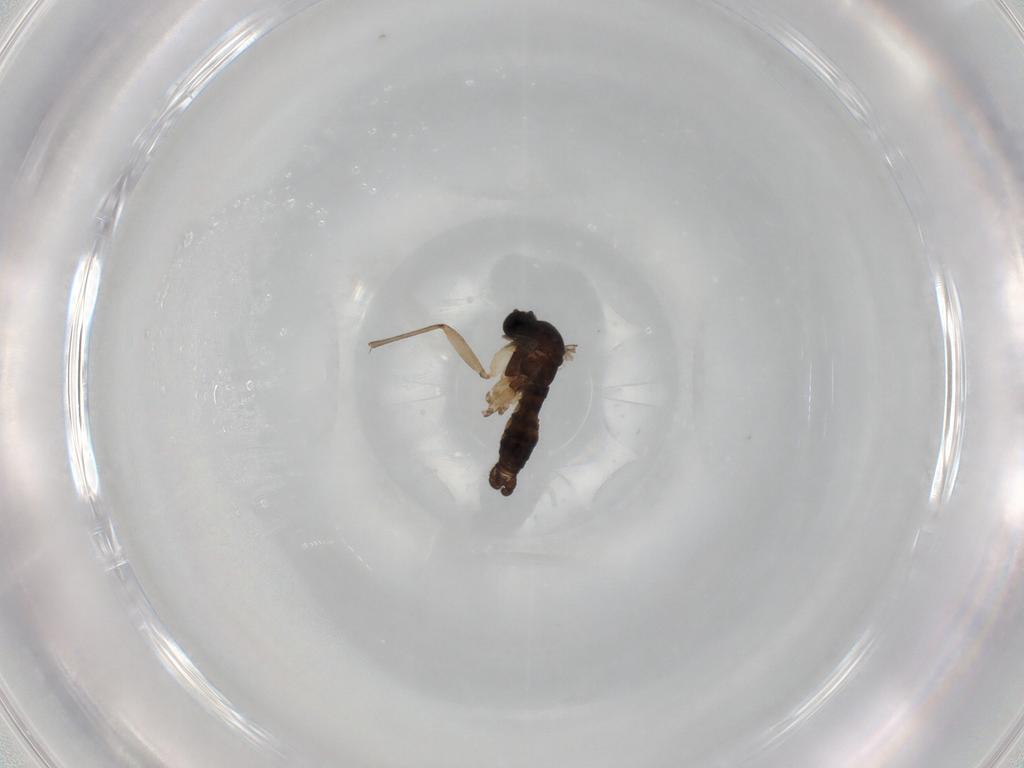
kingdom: Animalia
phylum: Arthropoda
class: Insecta
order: Diptera
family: Sciaridae
